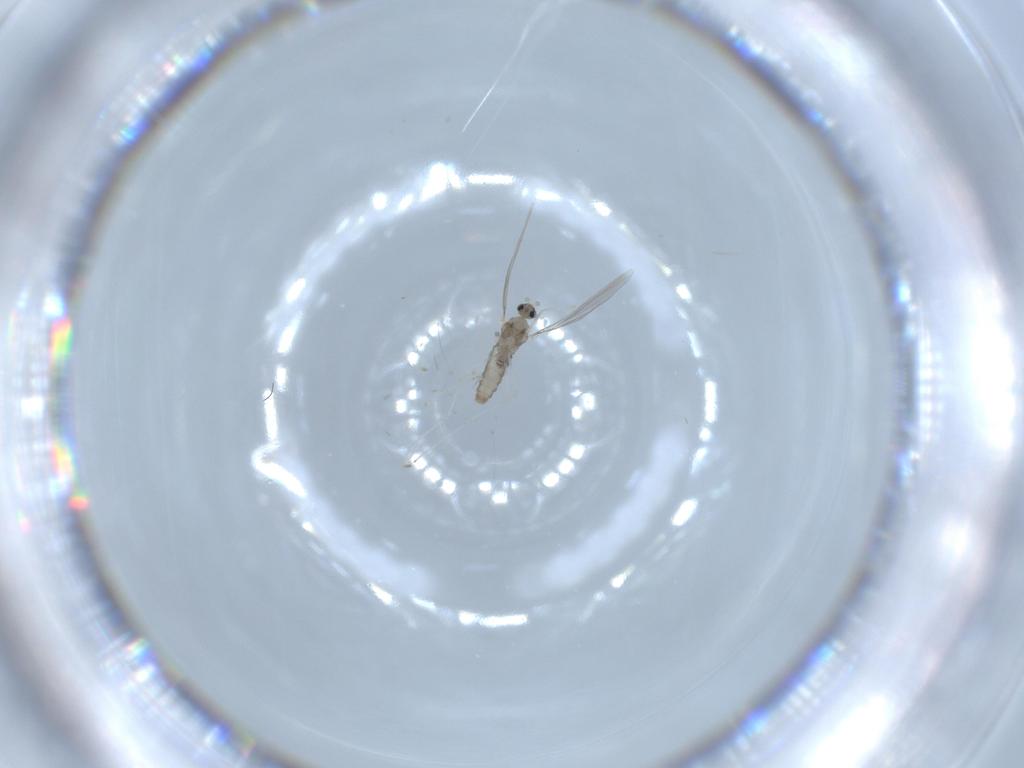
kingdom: Animalia
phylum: Arthropoda
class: Insecta
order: Diptera
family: Cecidomyiidae
